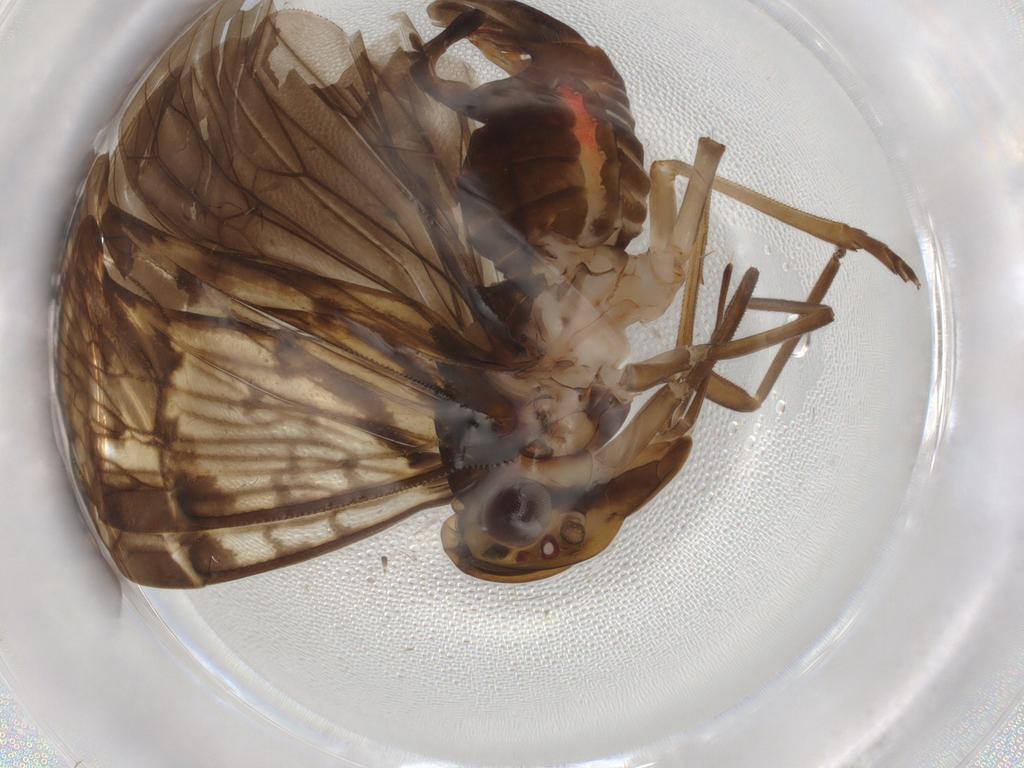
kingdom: Animalia
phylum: Arthropoda
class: Insecta
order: Hemiptera
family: Cixiidae
